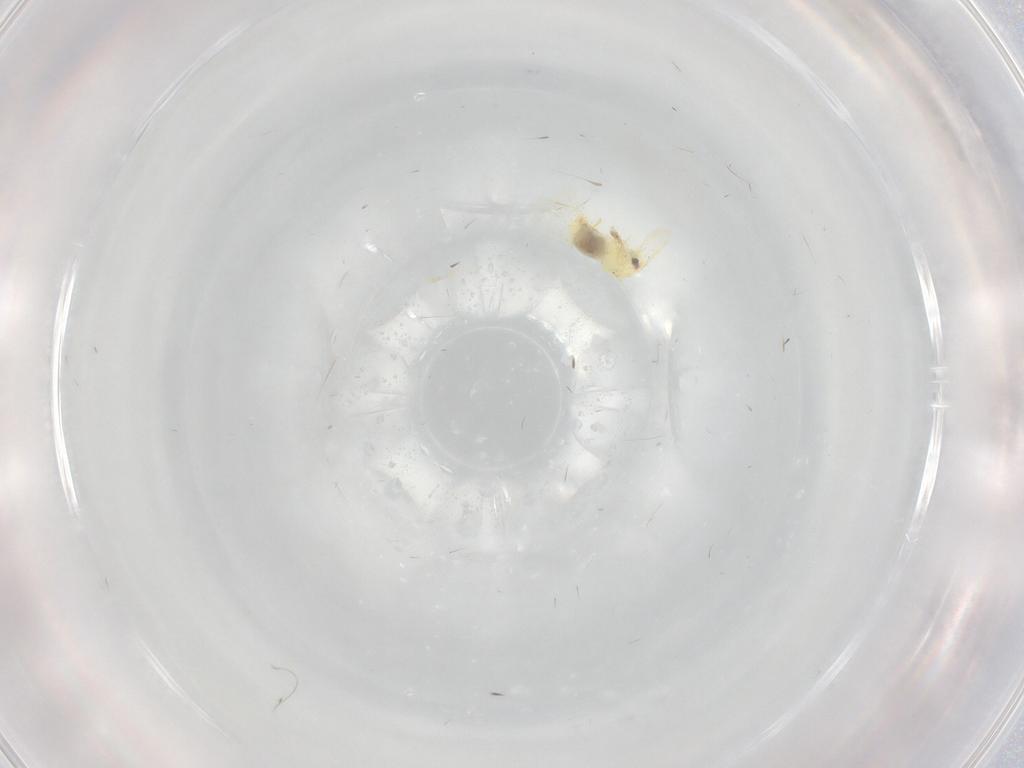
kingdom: Animalia
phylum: Arthropoda
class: Insecta
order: Hemiptera
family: Aleyrodidae
